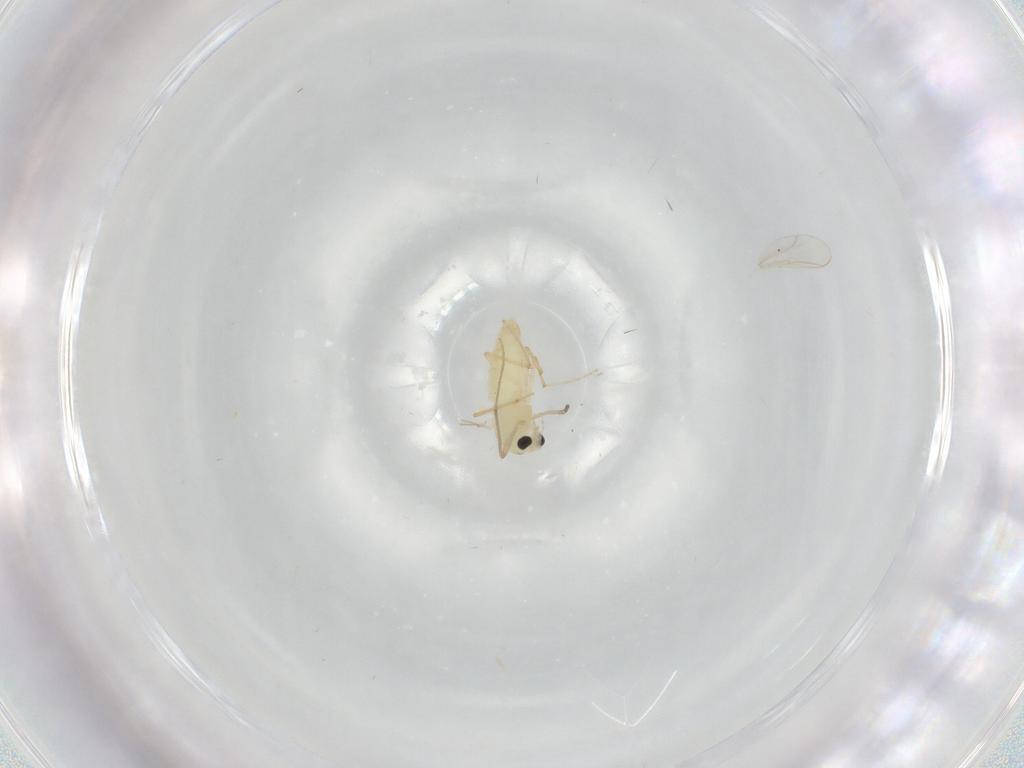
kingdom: Animalia
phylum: Arthropoda
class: Insecta
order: Diptera
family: Chironomidae
